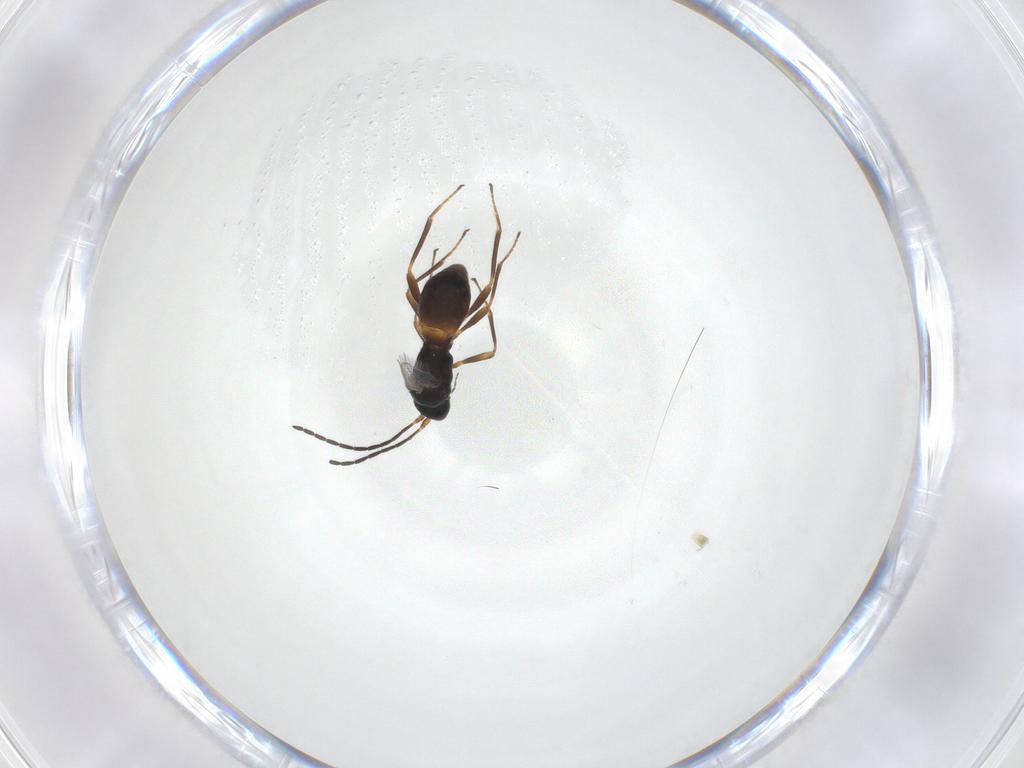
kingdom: Animalia
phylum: Arthropoda
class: Insecta
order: Hymenoptera
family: Braconidae
